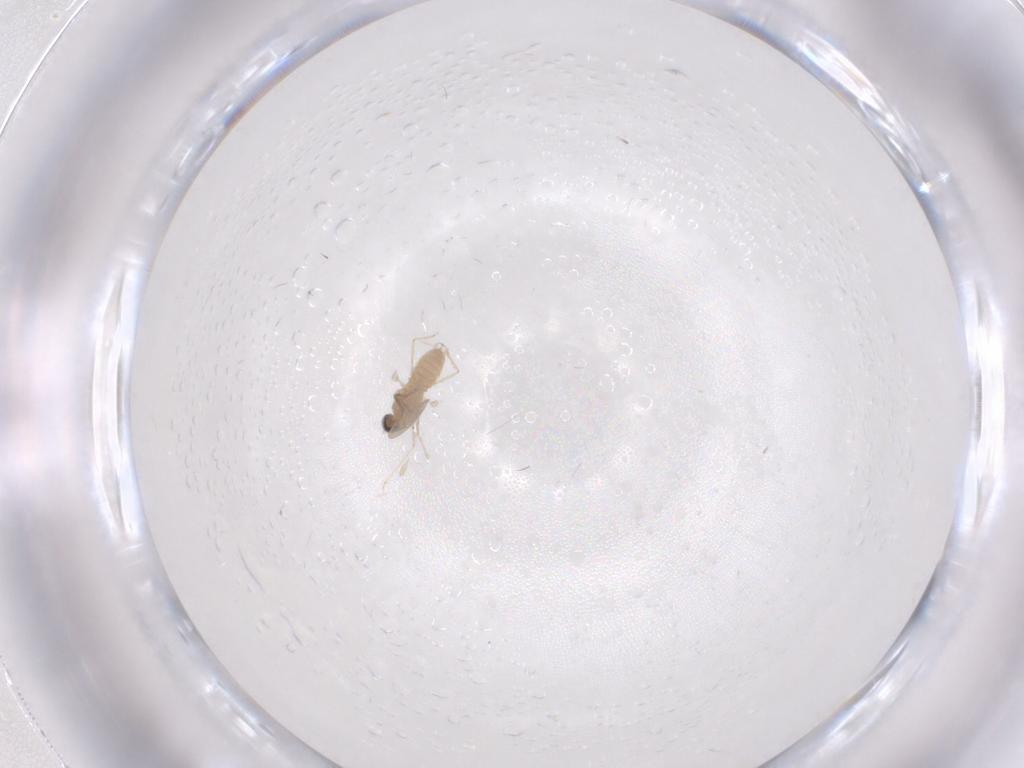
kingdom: Animalia
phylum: Arthropoda
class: Insecta
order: Diptera
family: Cecidomyiidae
